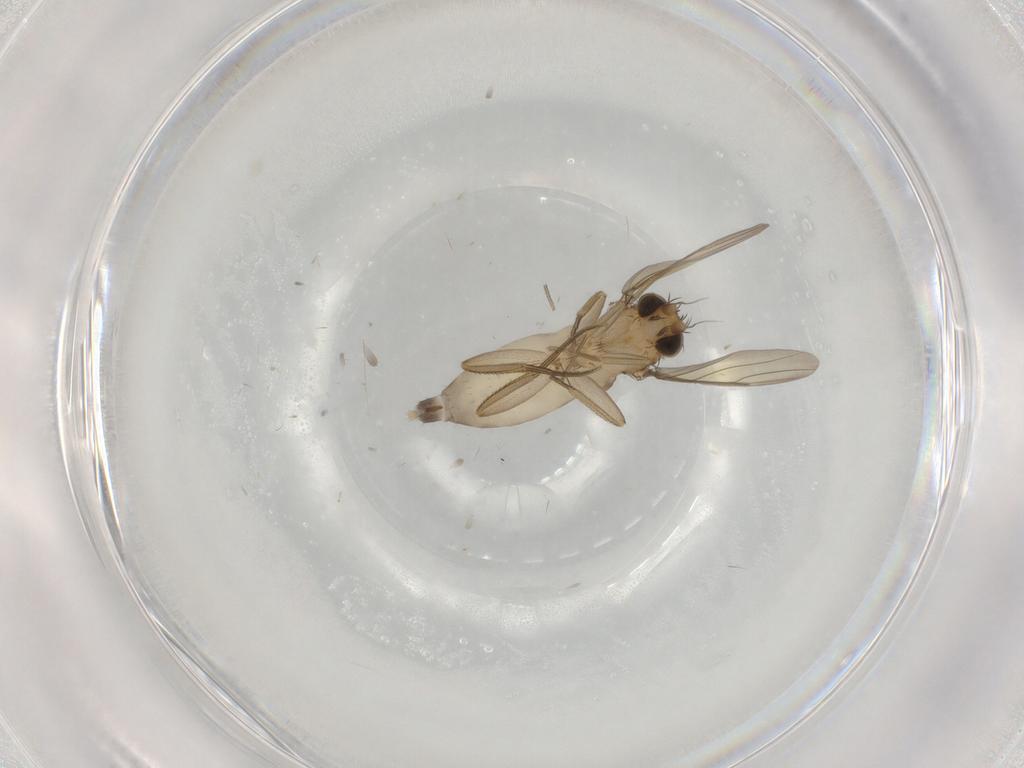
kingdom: Animalia
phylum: Arthropoda
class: Insecta
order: Diptera
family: Phoridae
